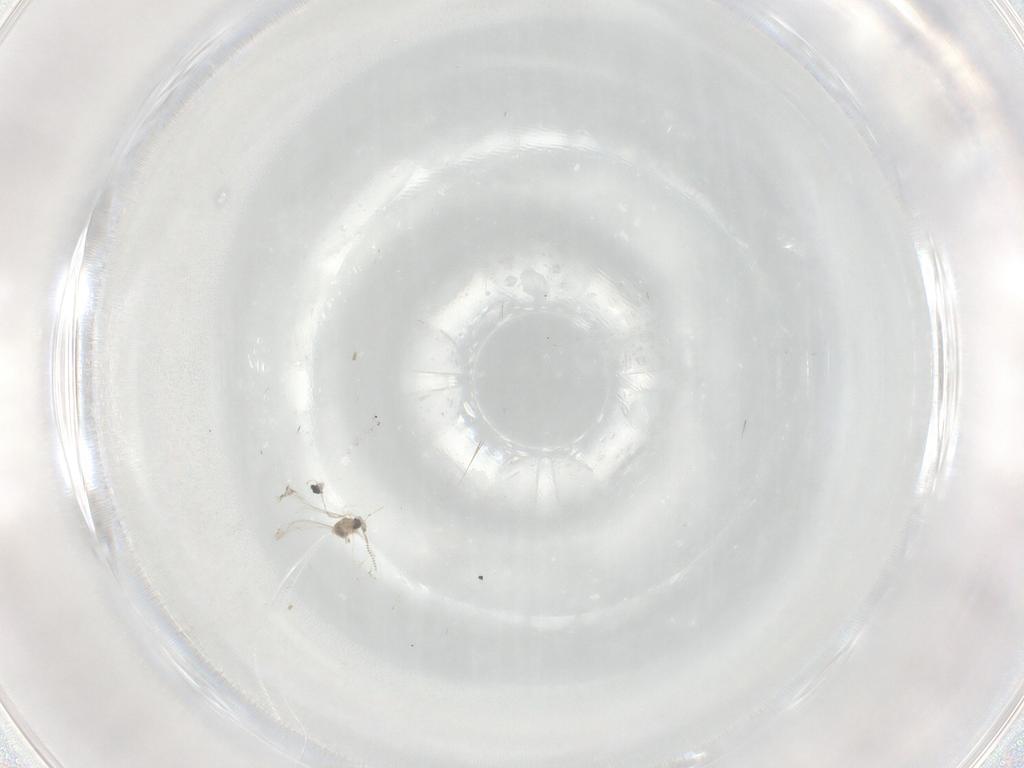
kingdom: Animalia
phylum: Arthropoda
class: Insecta
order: Diptera
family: Cecidomyiidae
